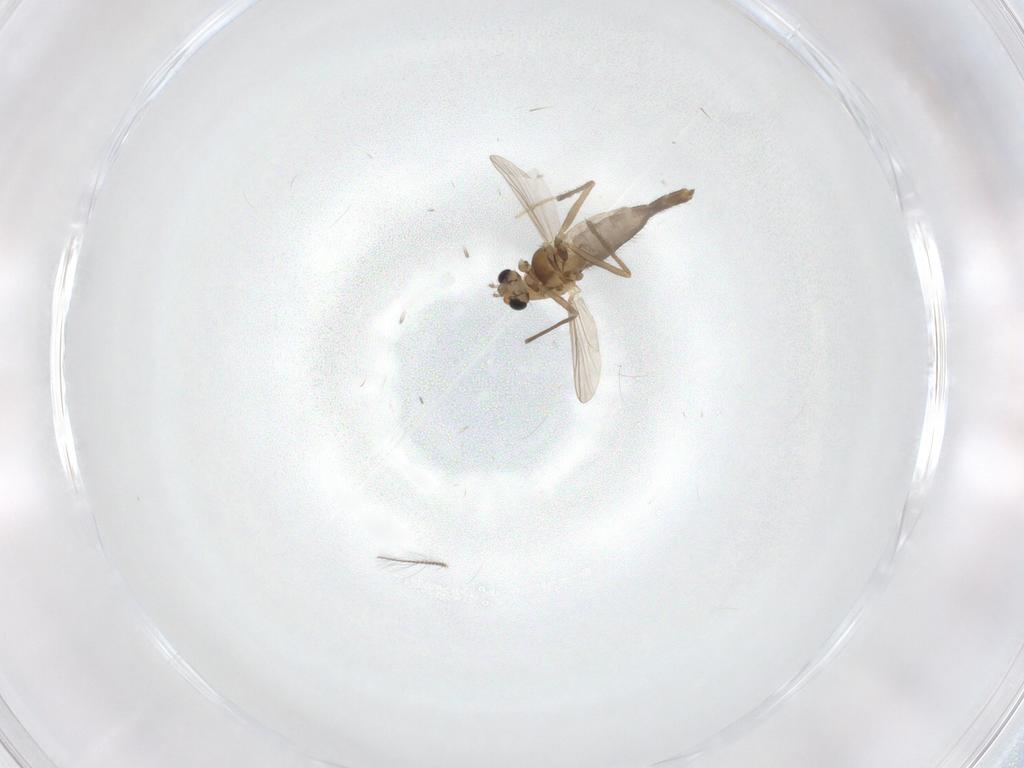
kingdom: Animalia
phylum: Arthropoda
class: Insecta
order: Diptera
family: Chironomidae
